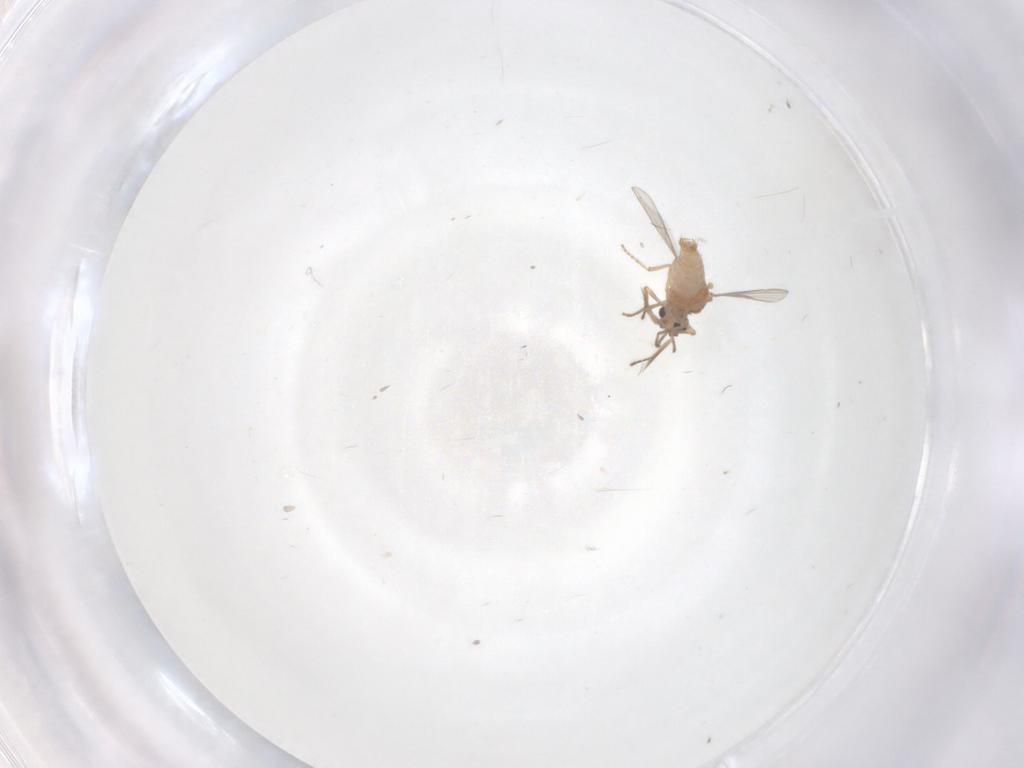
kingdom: Animalia
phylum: Arthropoda
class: Insecta
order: Diptera
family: Ceratopogonidae
